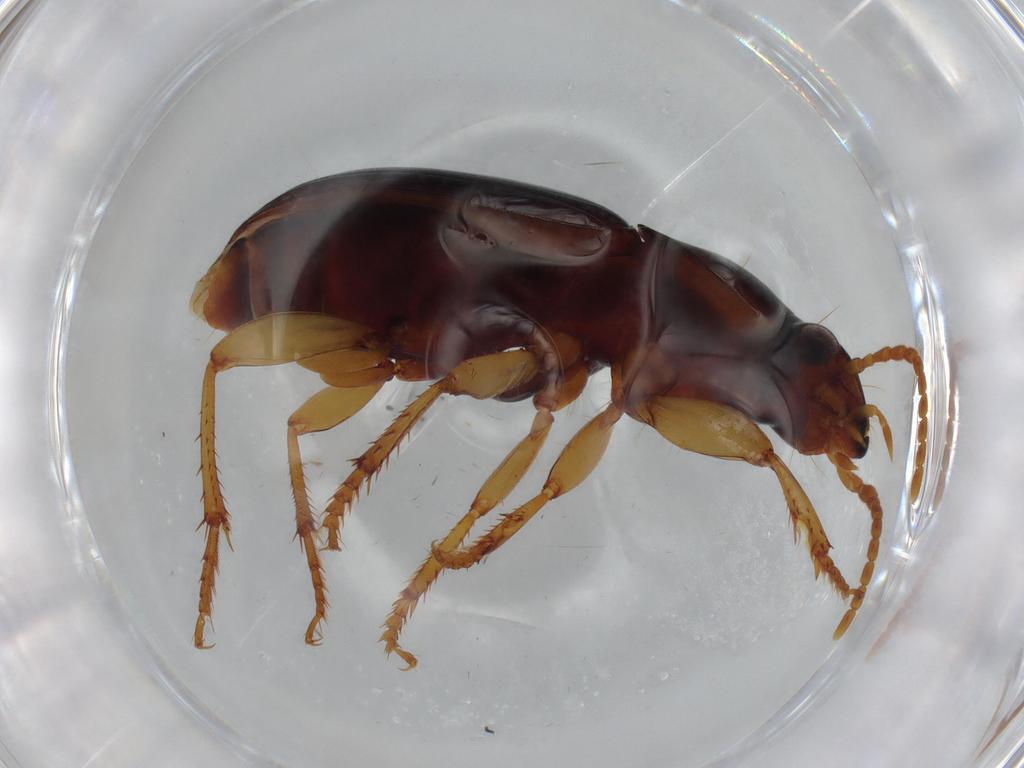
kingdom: Animalia
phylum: Arthropoda
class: Insecta
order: Coleoptera
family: Carabidae
